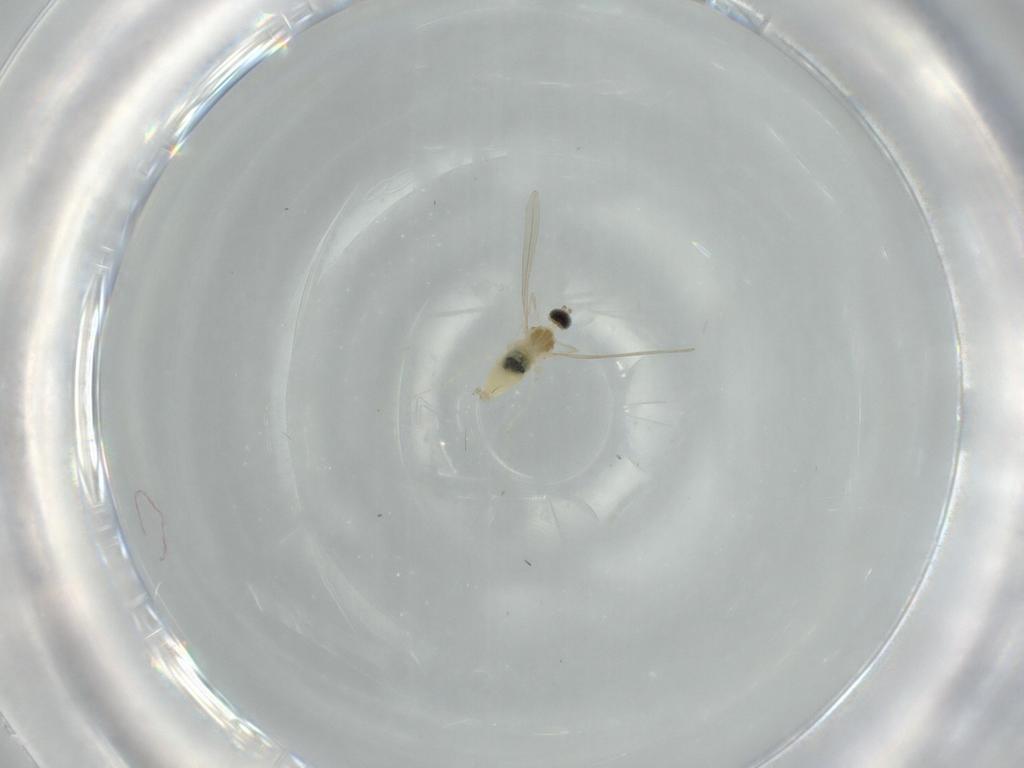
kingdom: Animalia
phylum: Arthropoda
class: Insecta
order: Diptera
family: Cecidomyiidae
